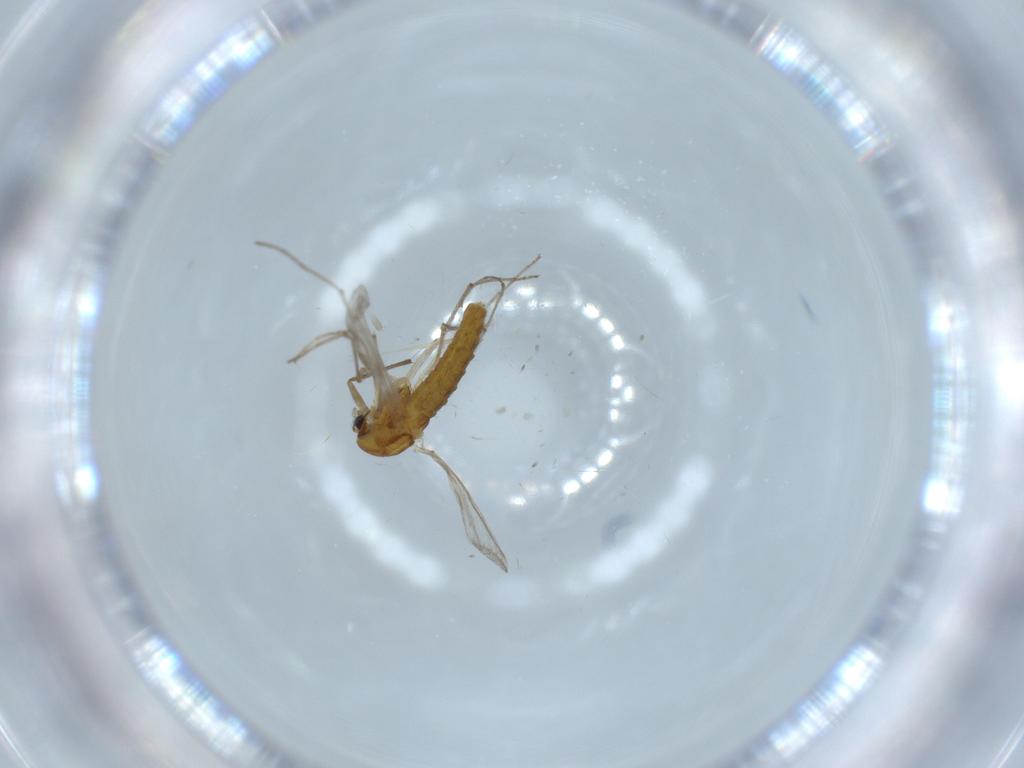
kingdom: Animalia
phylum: Arthropoda
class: Insecta
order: Diptera
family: Chironomidae
